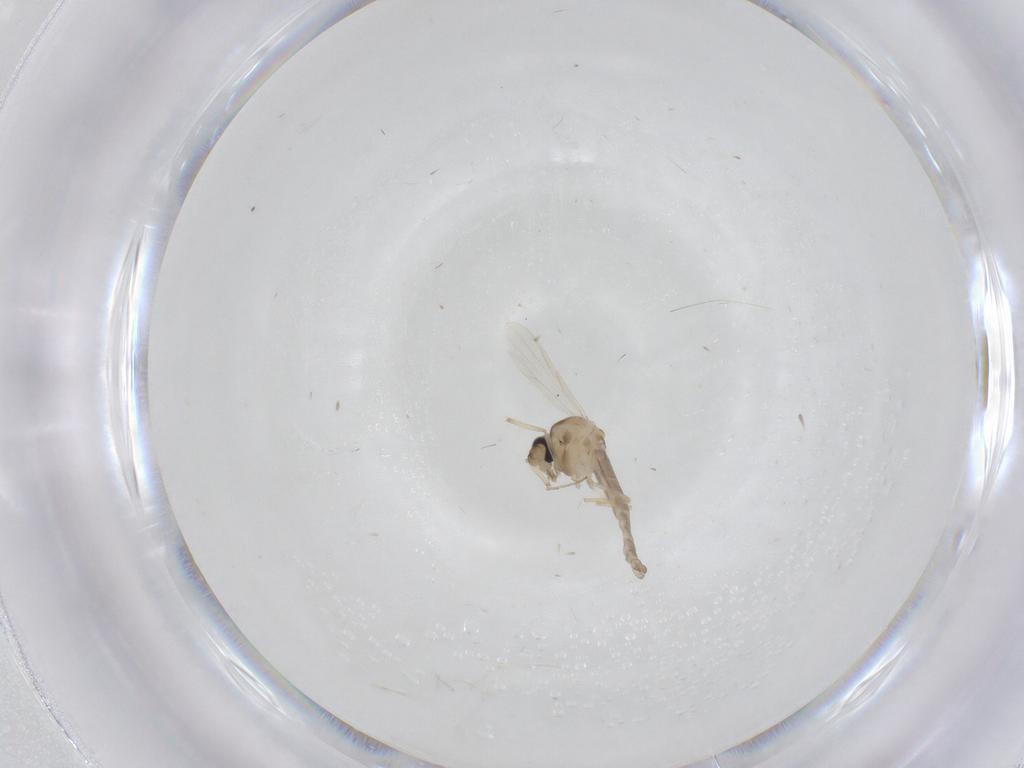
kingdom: Animalia
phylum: Arthropoda
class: Insecta
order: Diptera
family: Ceratopogonidae
